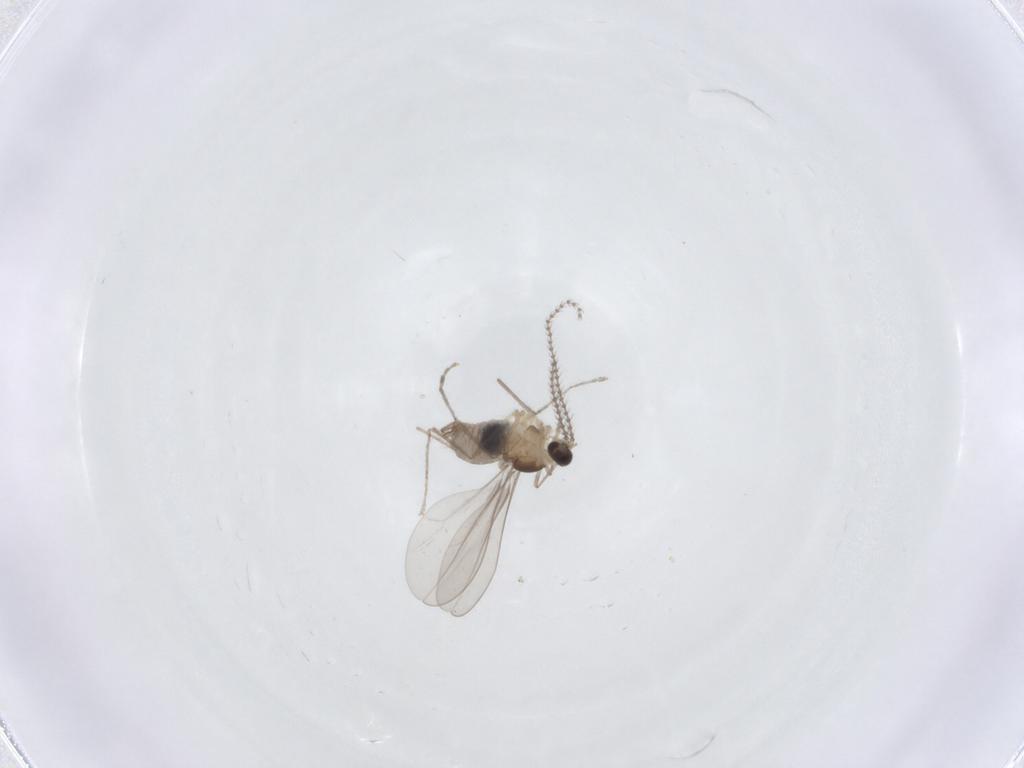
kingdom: Animalia
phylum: Arthropoda
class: Insecta
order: Diptera
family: Cecidomyiidae
